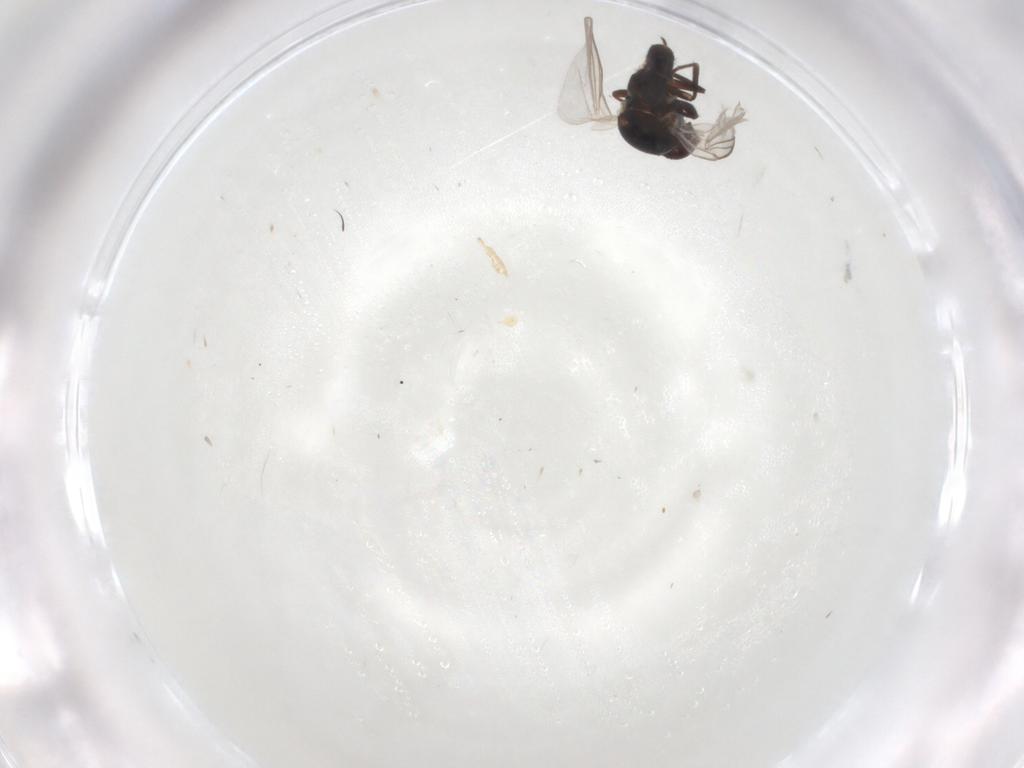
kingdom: Animalia
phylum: Arthropoda
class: Insecta
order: Diptera
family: Agromyzidae
